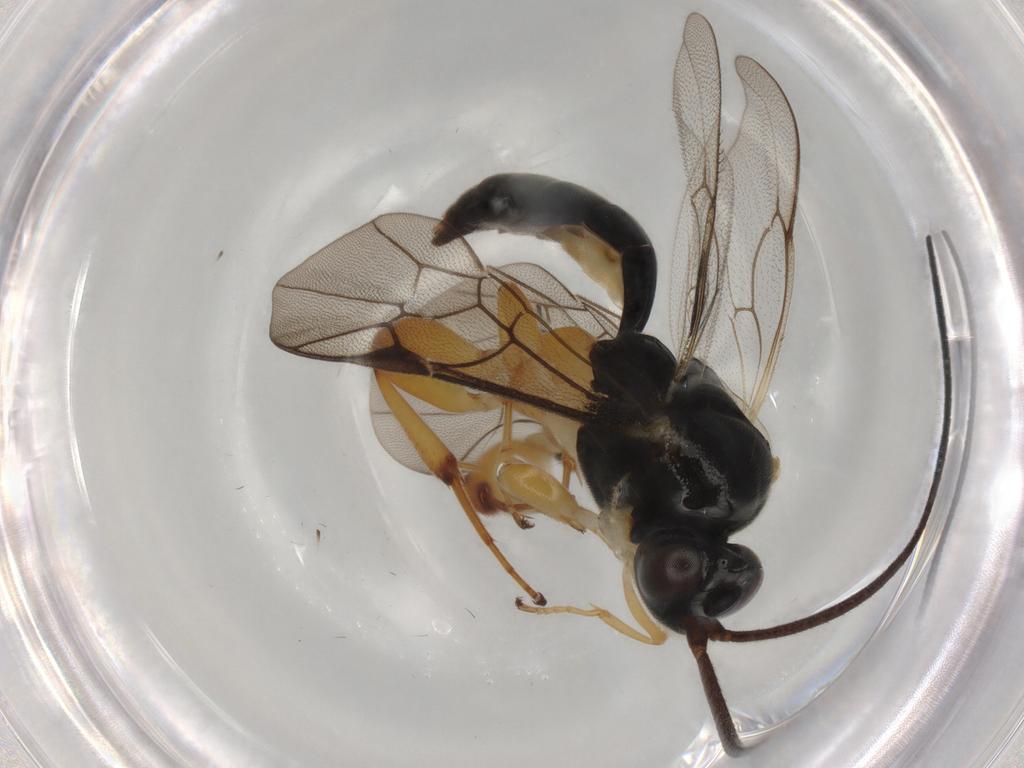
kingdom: Animalia
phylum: Arthropoda
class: Insecta
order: Hymenoptera
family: Ichneumonidae
